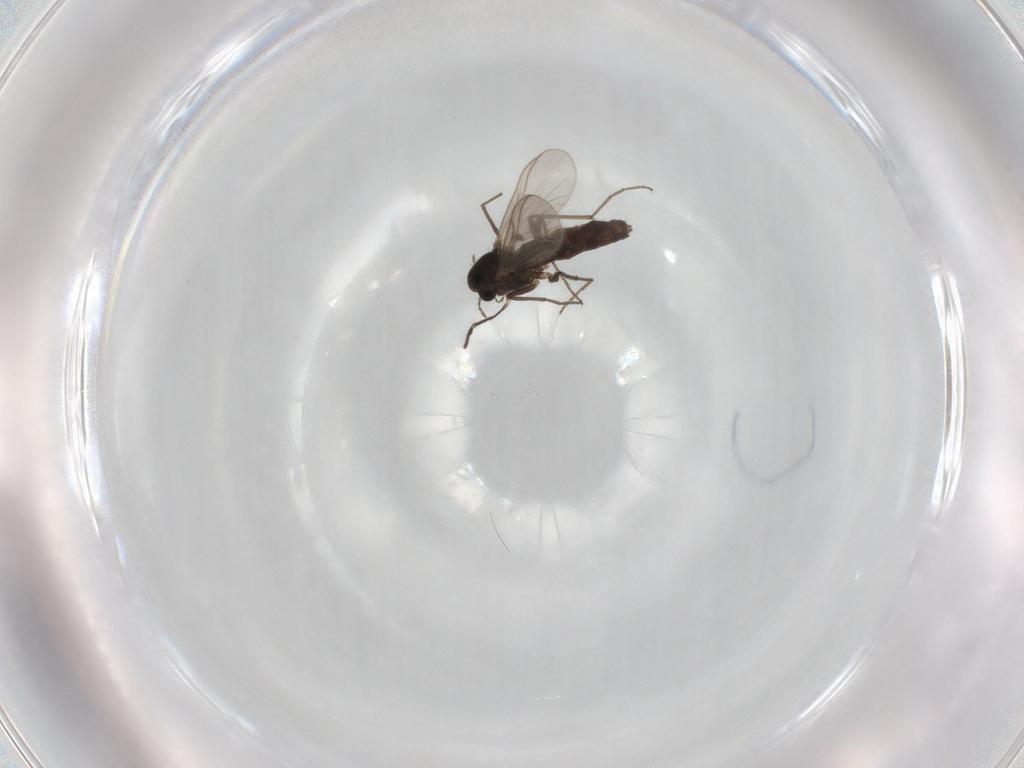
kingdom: Animalia
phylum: Arthropoda
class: Insecta
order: Diptera
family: Chironomidae
